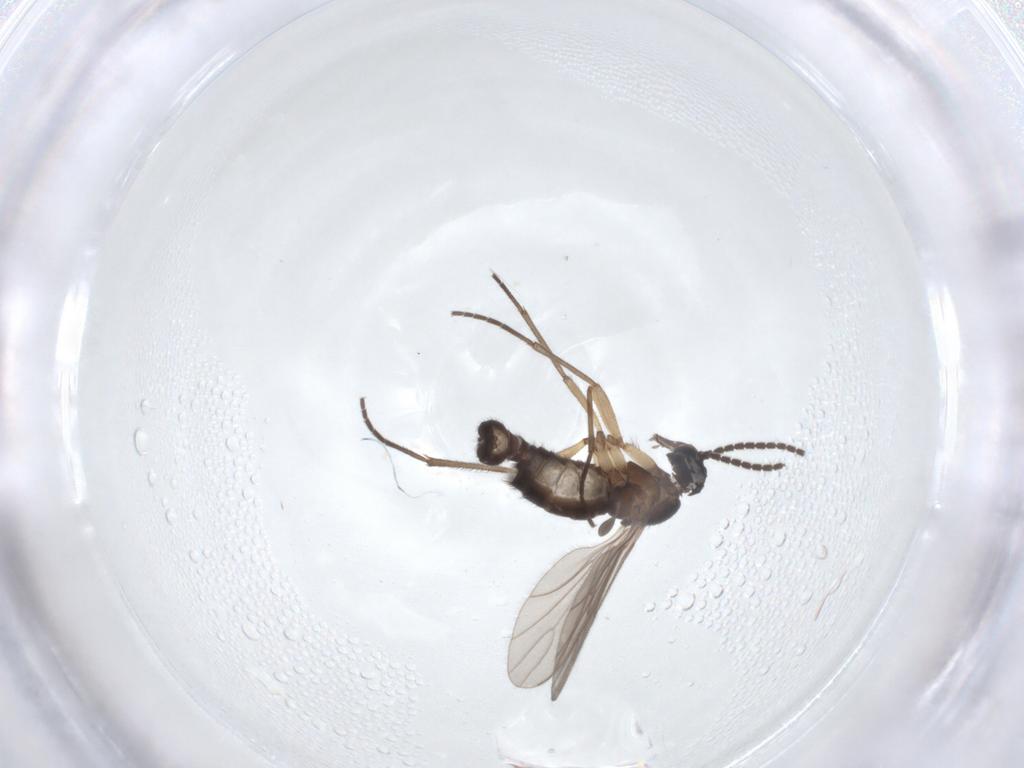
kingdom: Animalia
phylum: Arthropoda
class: Insecta
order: Diptera
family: Sciaridae
